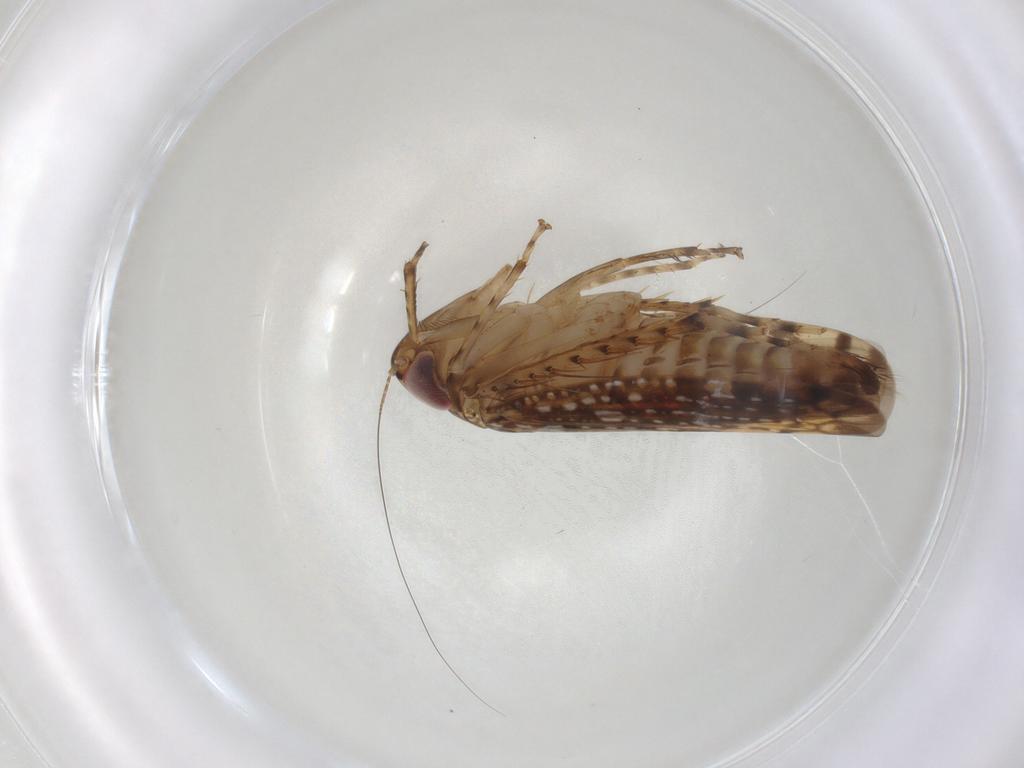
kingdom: Animalia
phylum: Arthropoda
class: Insecta
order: Hemiptera
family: Cicadellidae
